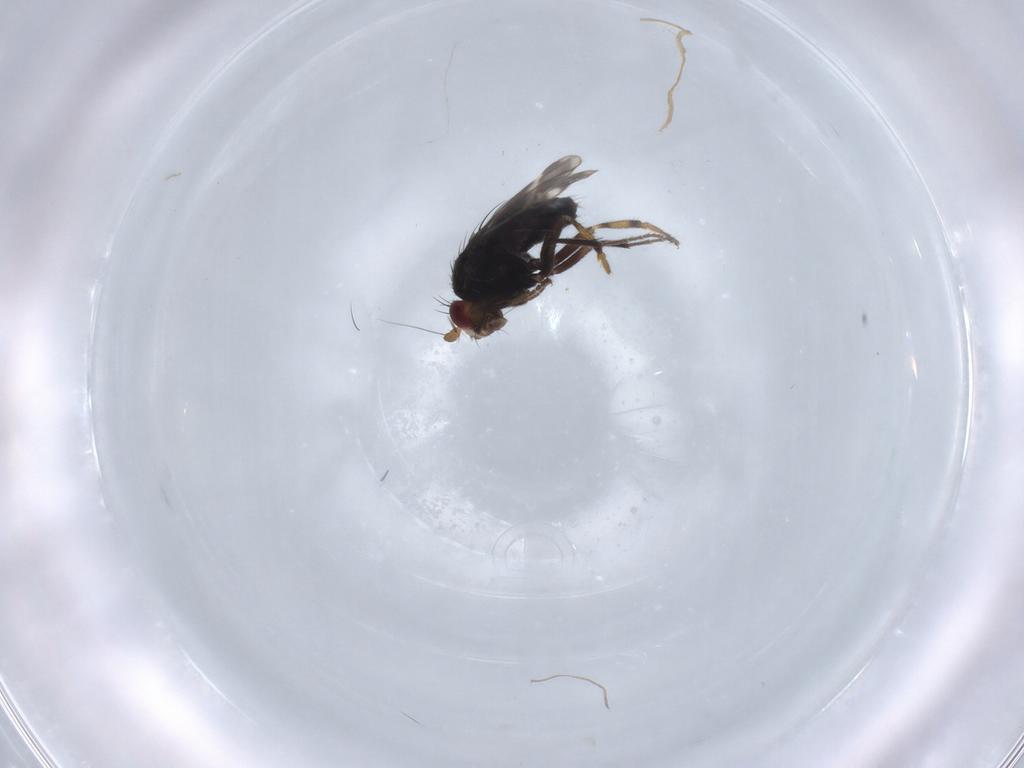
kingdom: Animalia
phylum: Arthropoda
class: Insecta
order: Diptera
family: Sphaeroceridae
